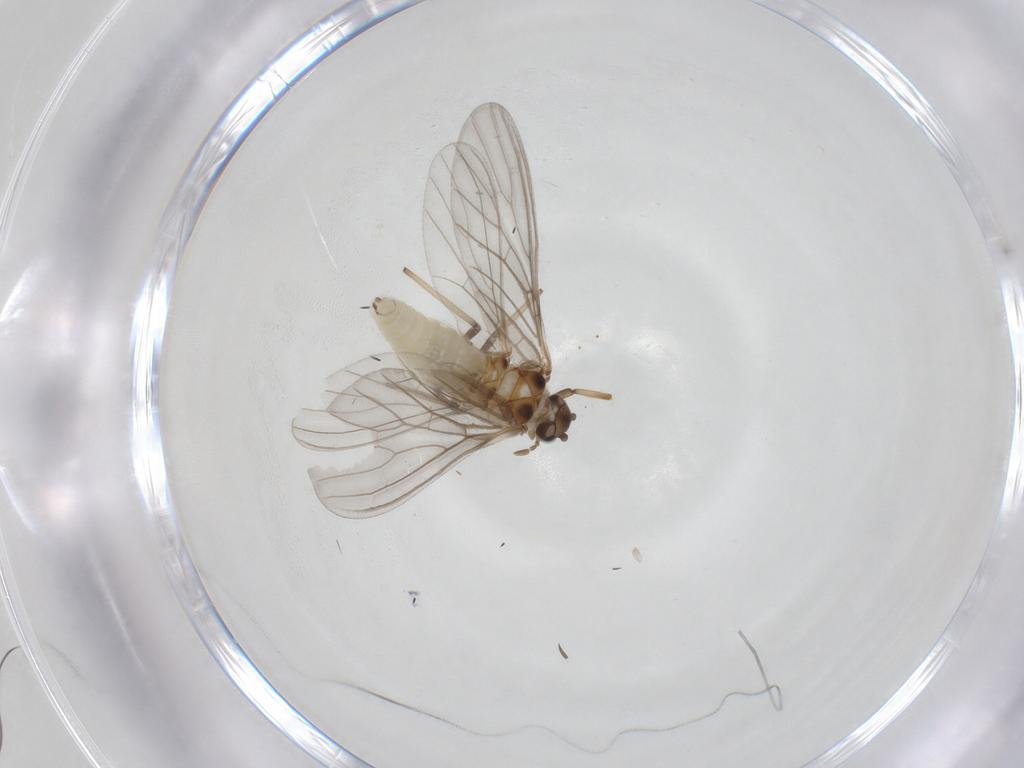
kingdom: Animalia
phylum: Arthropoda
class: Insecta
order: Neuroptera
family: Coniopterygidae
